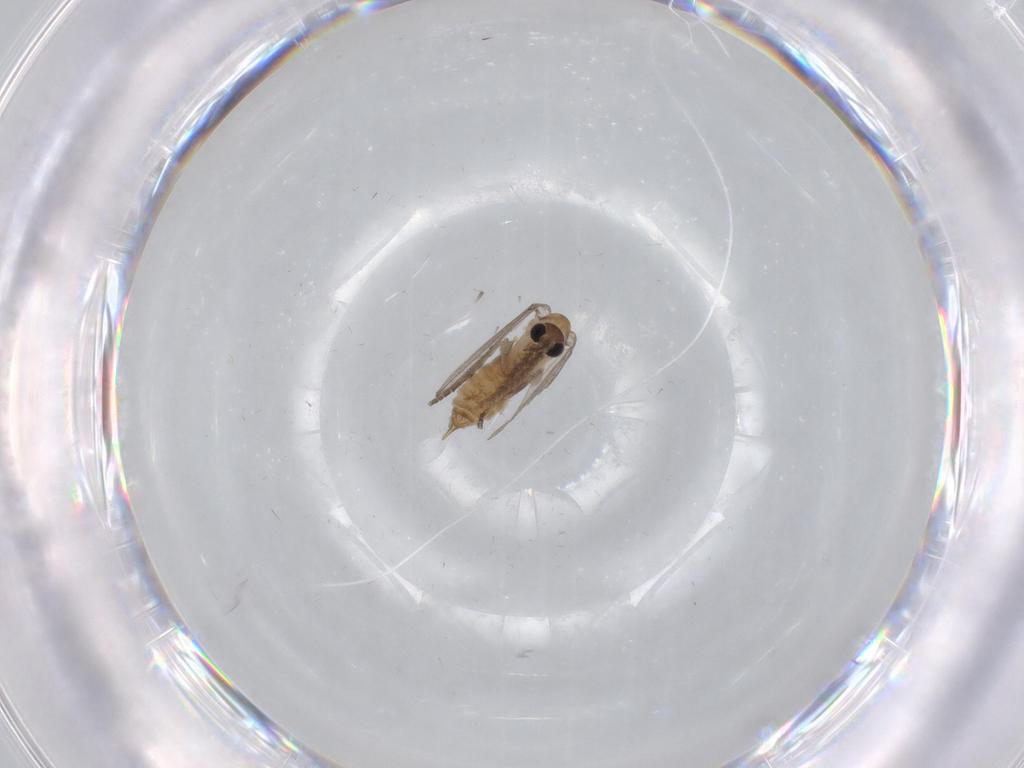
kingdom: Animalia
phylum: Arthropoda
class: Insecta
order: Diptera
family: Psychodidae
